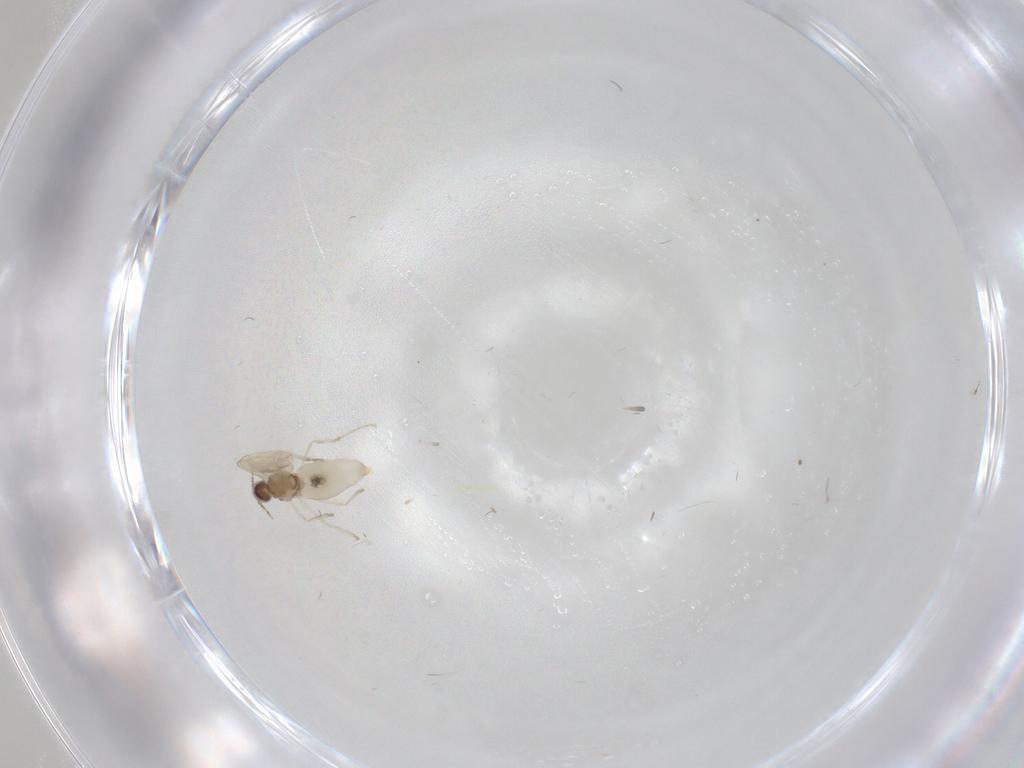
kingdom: Animalia
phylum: Arthropoda
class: Insecta
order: Diptera
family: Cecidomyiidae
